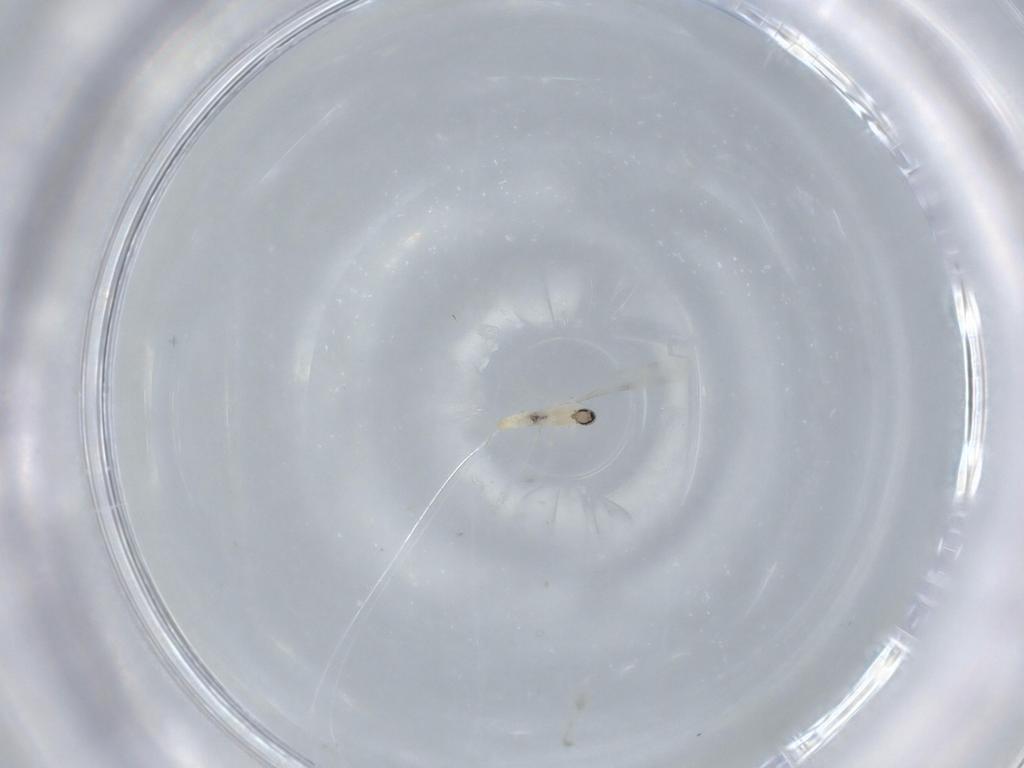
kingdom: Animalia
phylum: Arthropoda
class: Insecta
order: Diptera
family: Cecidomyiidae
